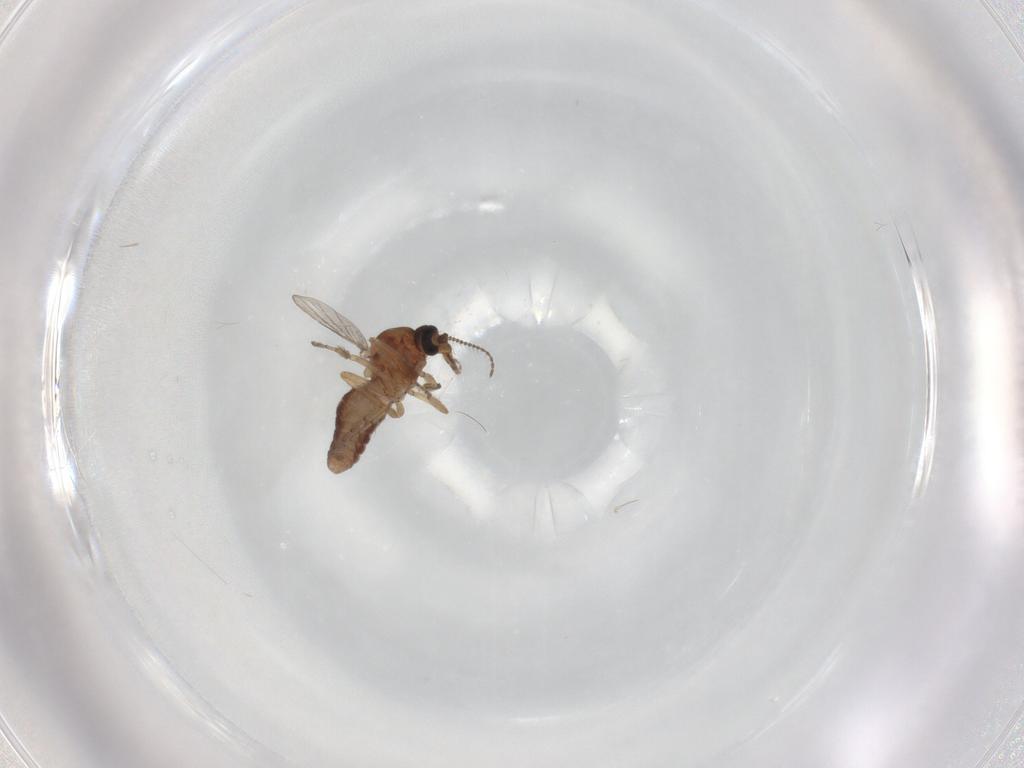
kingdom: Animalia
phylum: Arthropoda
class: Insecta
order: Diptera
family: Ceratopogonidae
